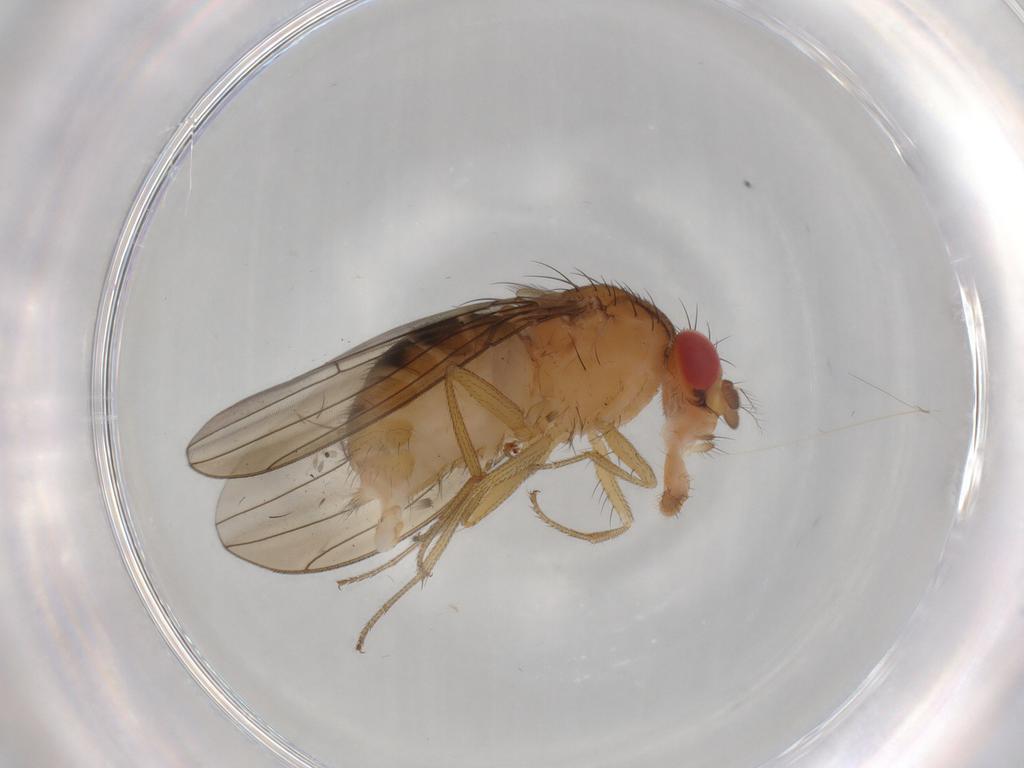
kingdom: Animalia
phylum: Arthropoda
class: Insecta
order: Diptera
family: Drosophilidae
